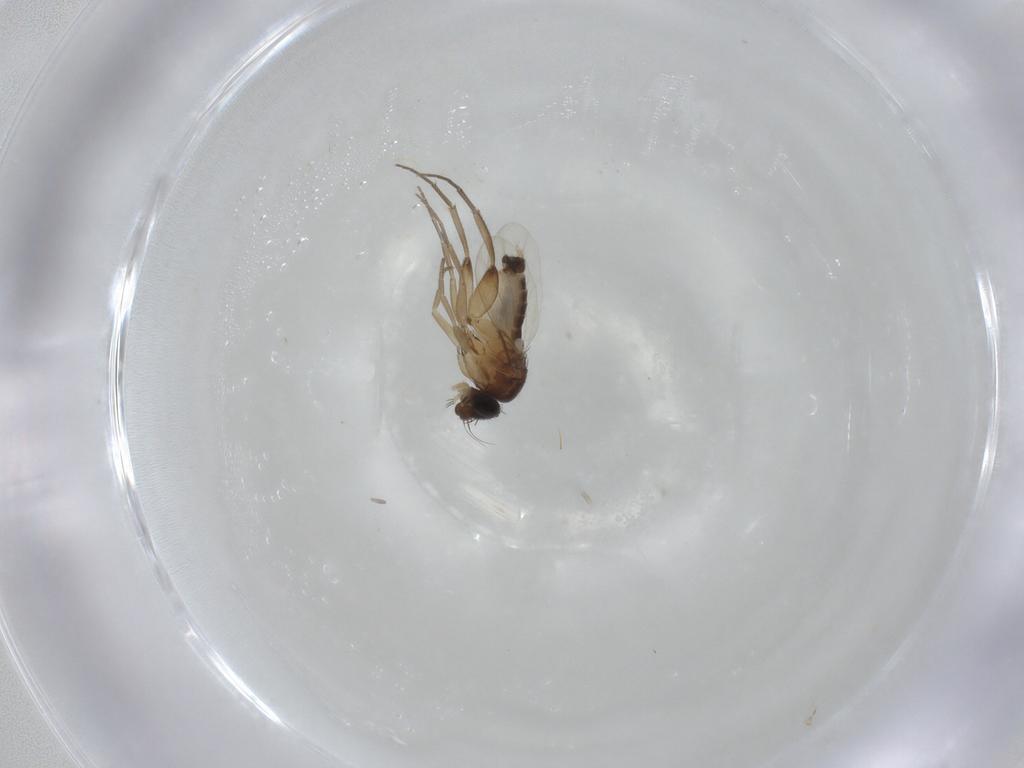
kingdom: Animalia
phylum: Arthropoda
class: Insecta
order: Diptera
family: Phoridae
